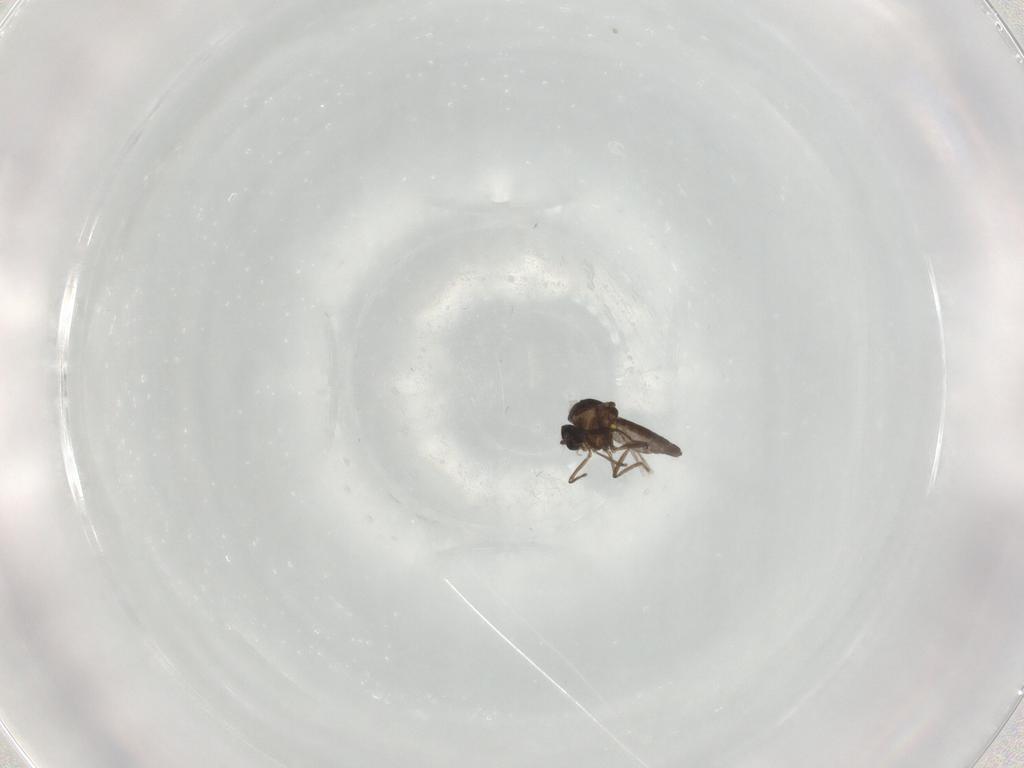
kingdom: Animalia
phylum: Arthropoda
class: Insecta
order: Diptera
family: Ceratopogonidae
